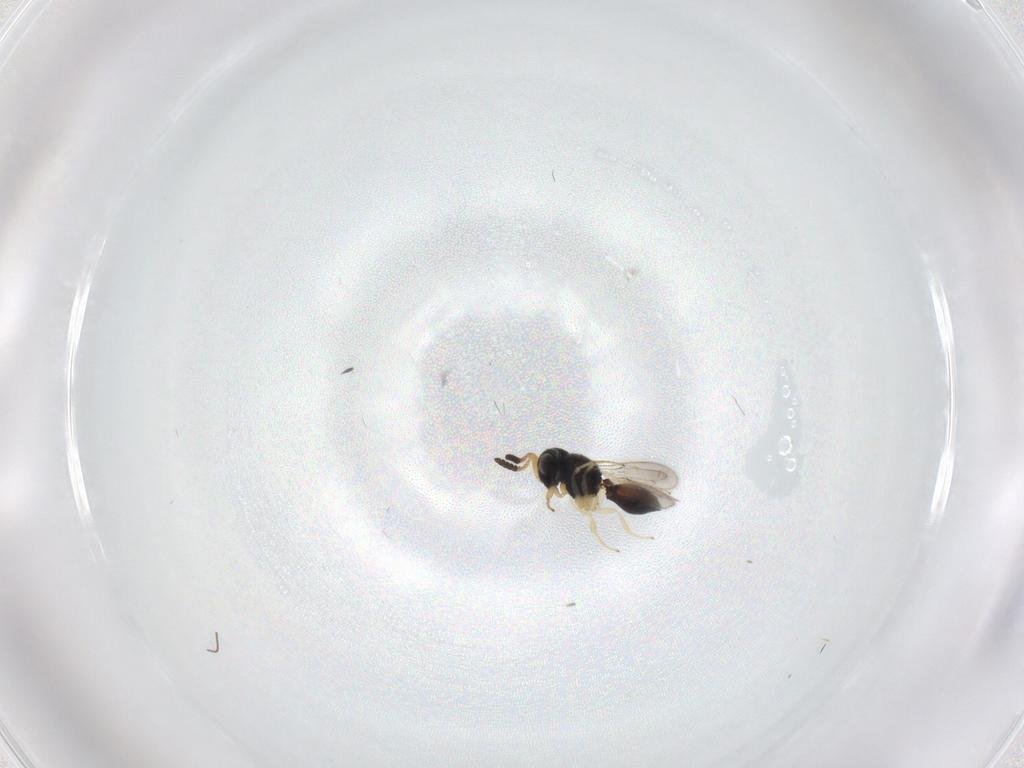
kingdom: Animalia
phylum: Arthropoda
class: Insecta
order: Hymenoptera
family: Scelionidae
